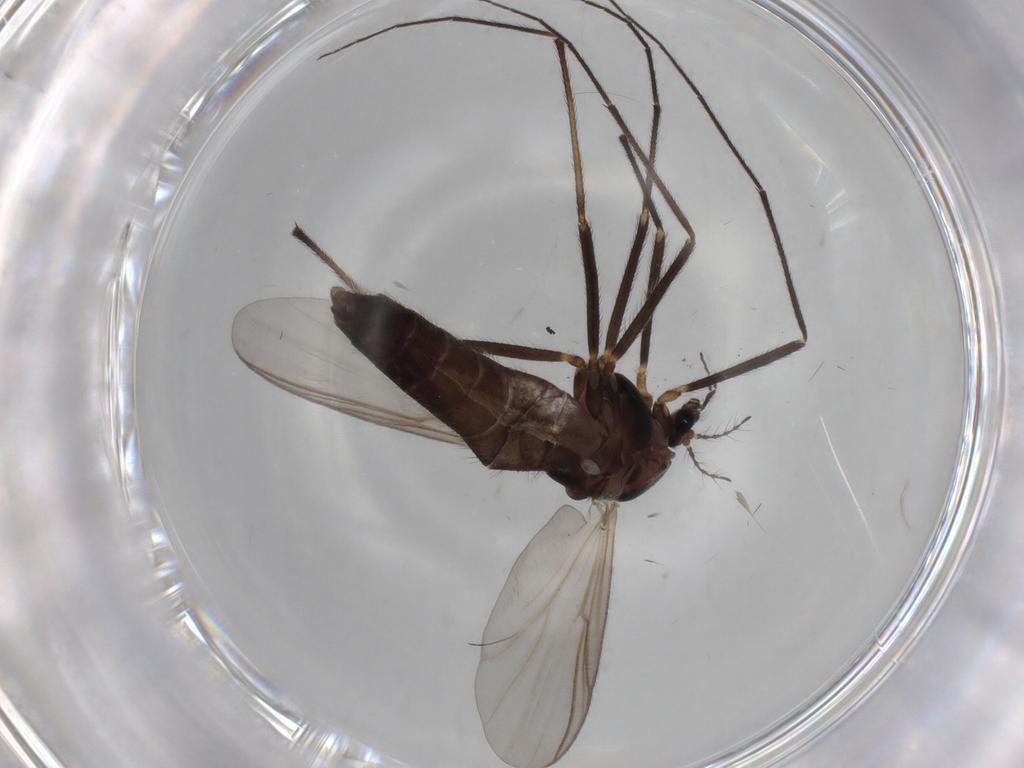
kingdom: Animalia
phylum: Arthropoda
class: Insecta
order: Diptera
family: Chironomidae
